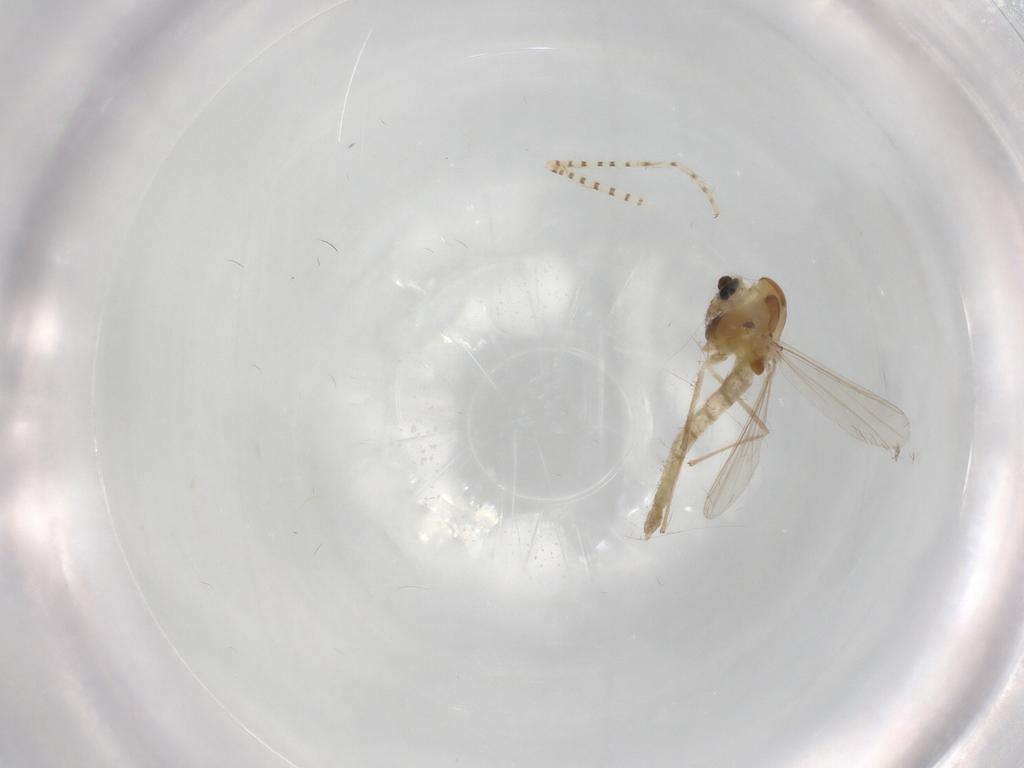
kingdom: Animalia
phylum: Arthropoda
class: Insecta
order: Diptera
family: Chironomidae
